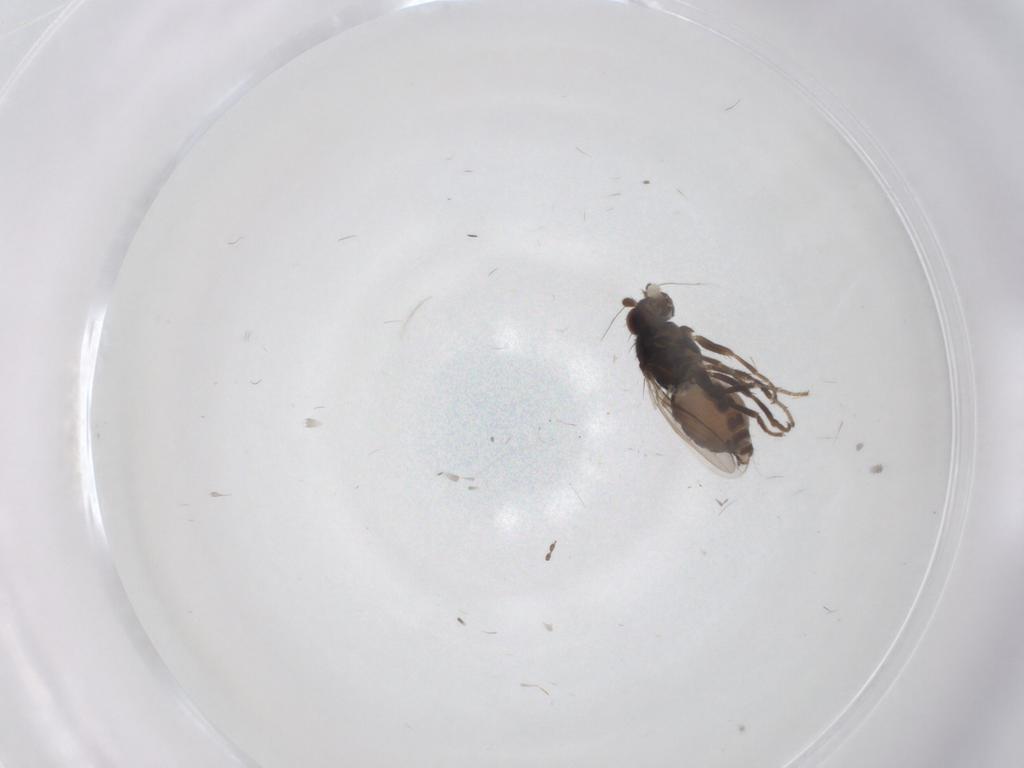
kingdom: Animalia
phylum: Arthropoda
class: Insecta
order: Diptera
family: Sphaeroceridae
